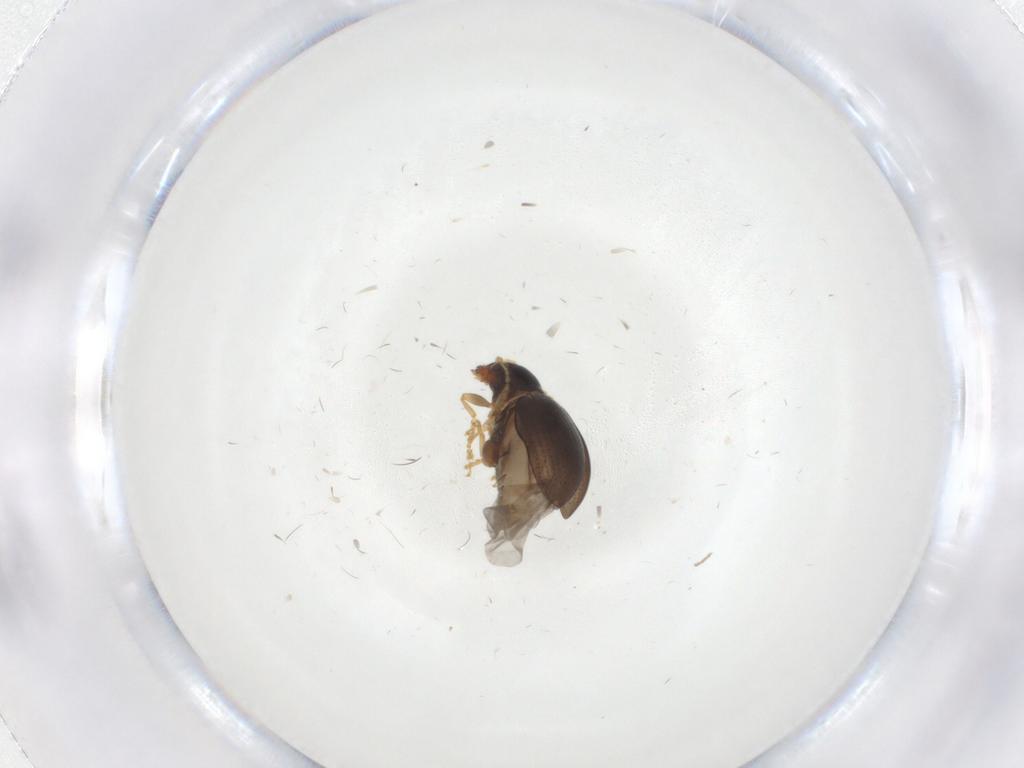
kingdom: Animalia
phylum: Arthropoda
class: Insecta
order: Coleoptera
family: Chrysomelidae
